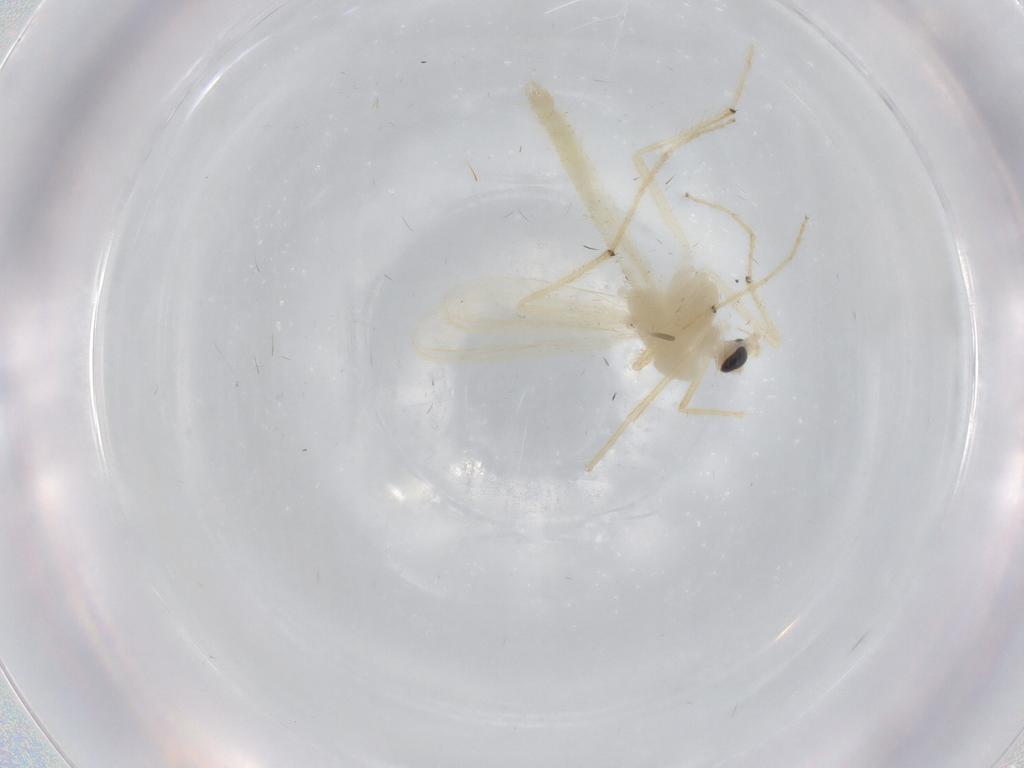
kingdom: Animalia
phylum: Arthropoda
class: Insecta
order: Diptera
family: Chironomidae
